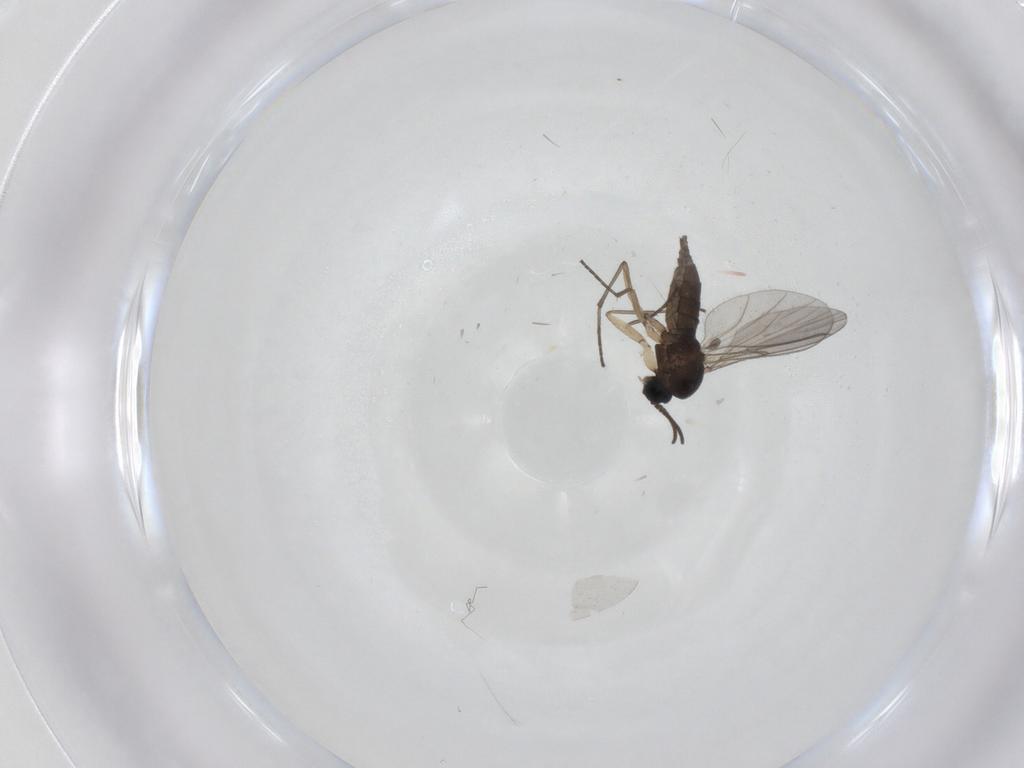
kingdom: Animalia
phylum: Arthropoda
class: Insecta
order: Diptera
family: Sciaridae
